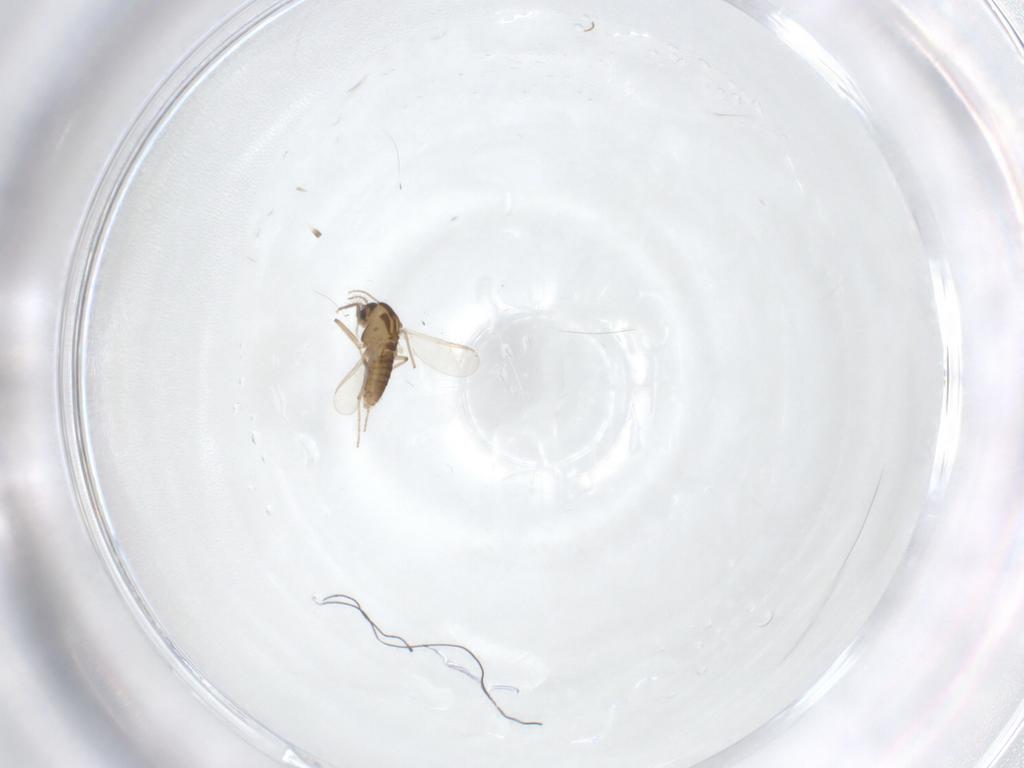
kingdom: Animalia
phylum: Arthropoda
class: Insecta
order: Diptera
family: Chironomidae
